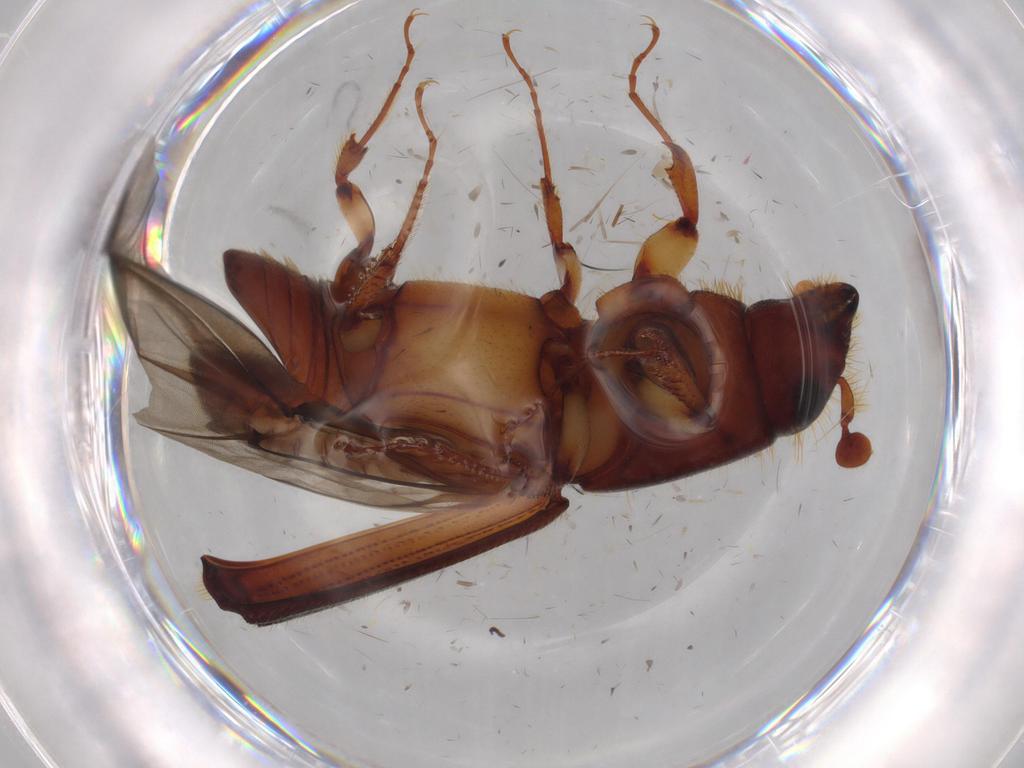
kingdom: Animalia
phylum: Arthropoda
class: Insecta
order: Coleoptera
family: Curculionidae
